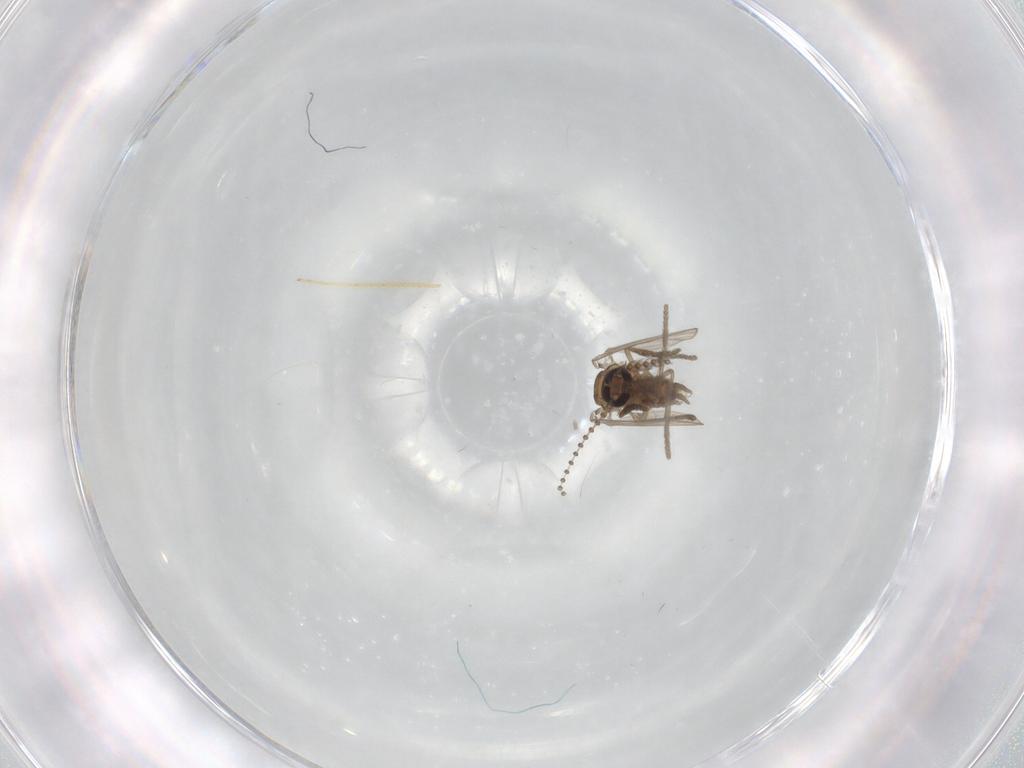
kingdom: Animalia
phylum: Arthropoda
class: Insecta
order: Diptera
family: Psychodidae
